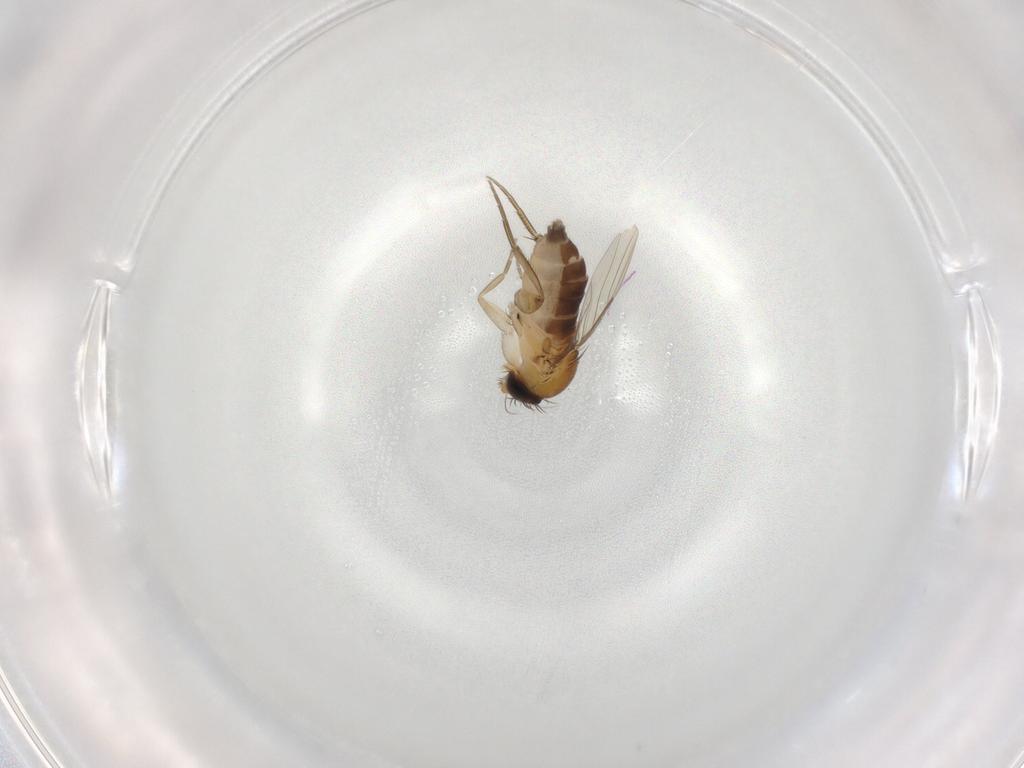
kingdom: Animalia
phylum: Arthropoda
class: Insecta
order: Diptera
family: Phoridae
